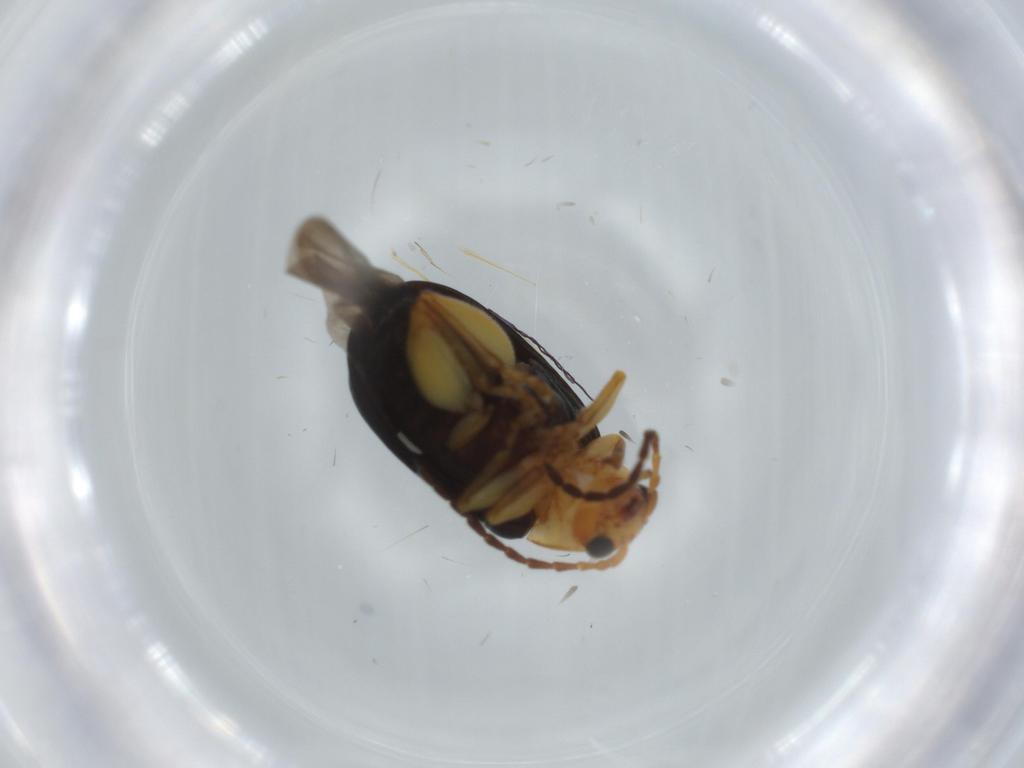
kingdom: Animalia
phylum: Arthropoda
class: Insecta
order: Coleoptera
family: Chrysomelidae
